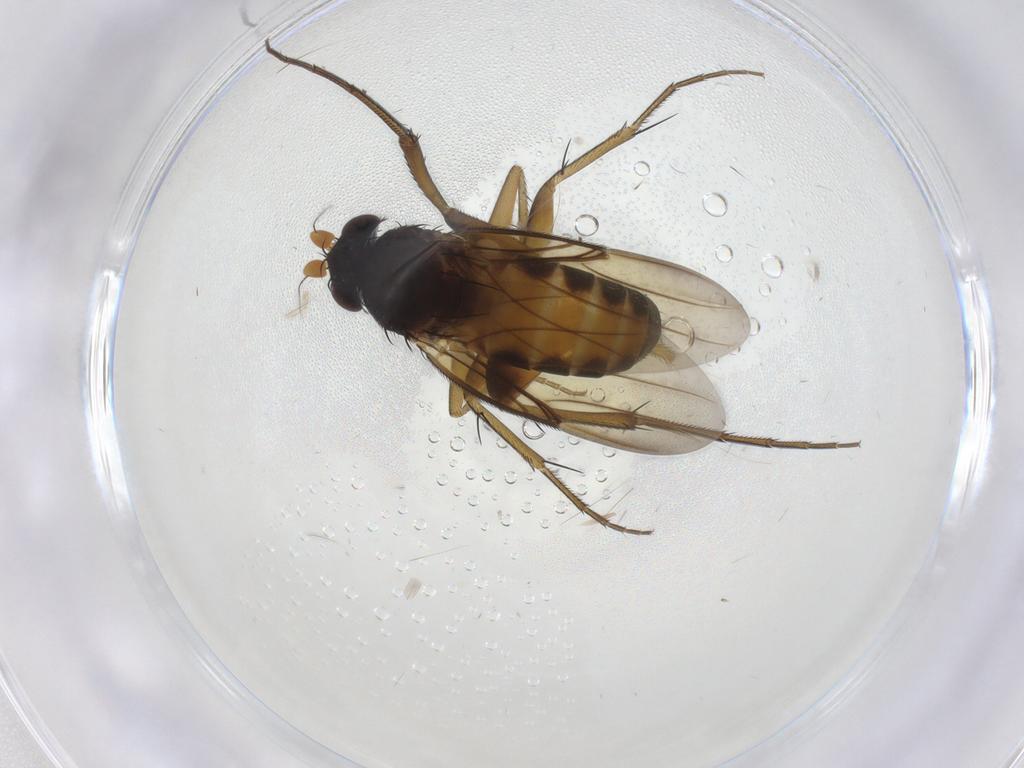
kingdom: Animalia
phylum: Arthropoda
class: Insecta
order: Diptera
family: Phoridae
